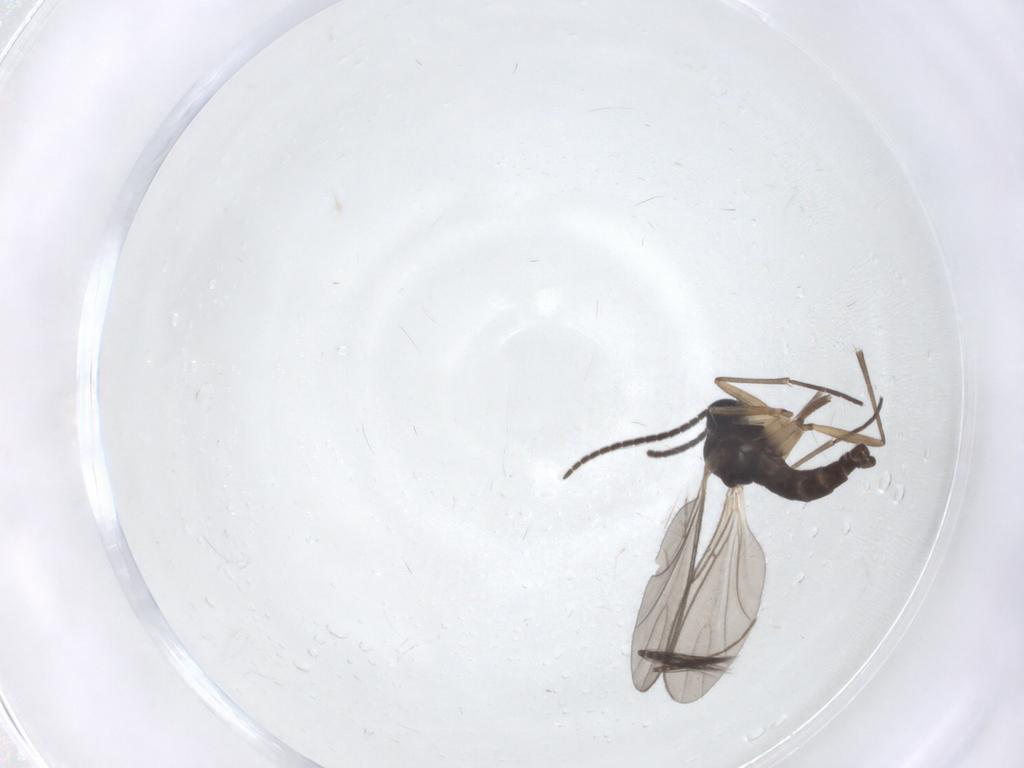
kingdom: Animalia
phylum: Arthropoda
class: Insecta
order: Diptera
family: Ceratopogonidae
